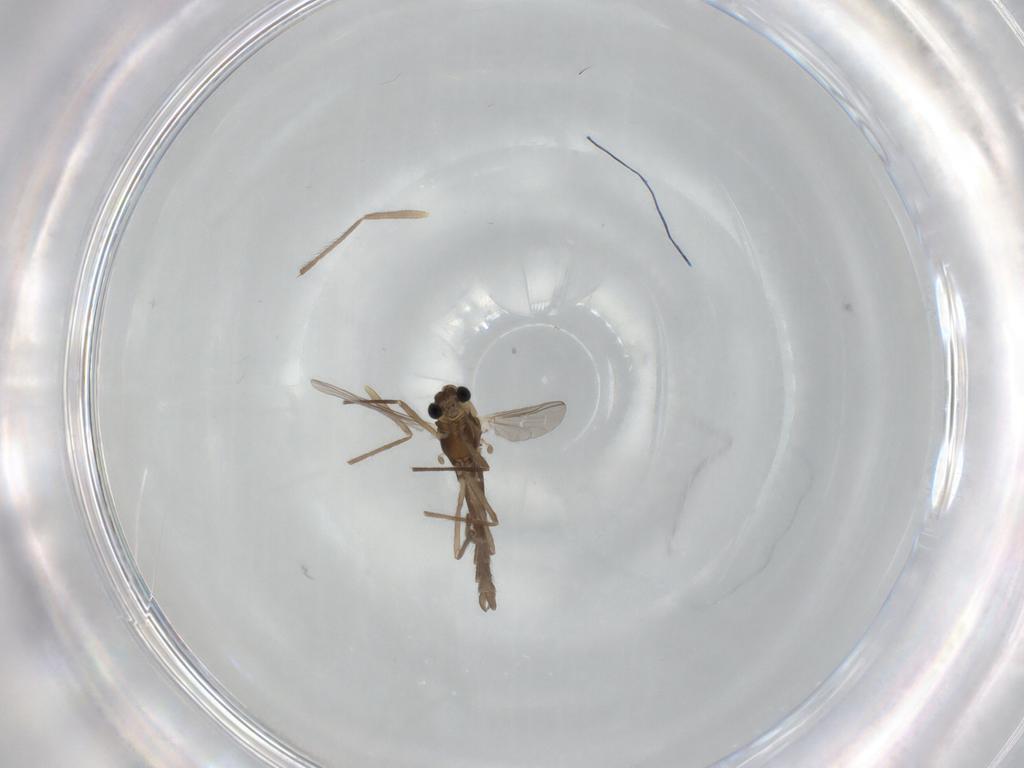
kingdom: Animalia
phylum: Arthropoda
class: Insecta
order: Diptera
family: Chironomidae
